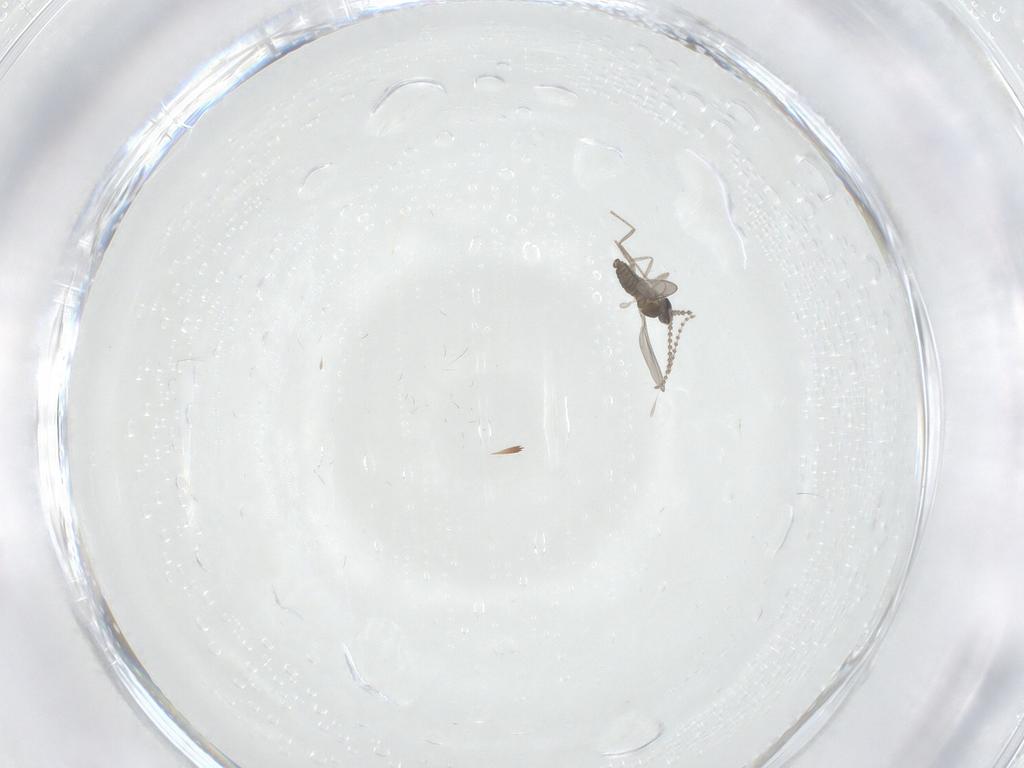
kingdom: Animalia
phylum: Arthropoda
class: Insecta
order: Diptera
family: Cecidomyiidae
